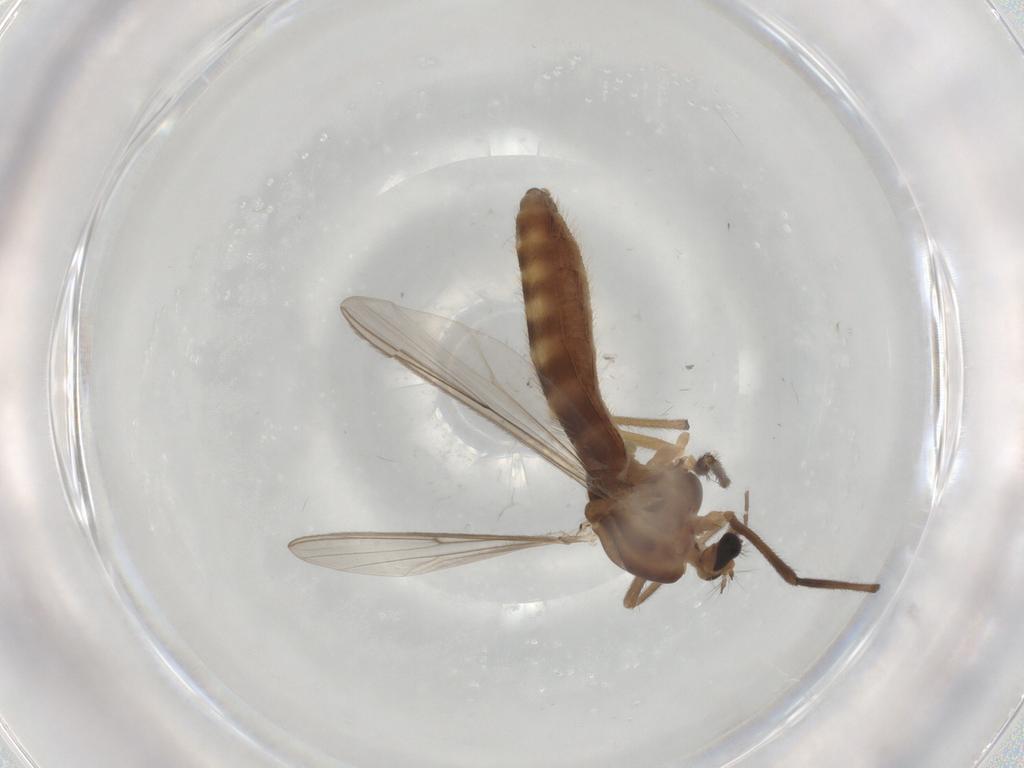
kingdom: Animalia
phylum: Arthropoda
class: Insecta
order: Diptera
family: Chironomidae
